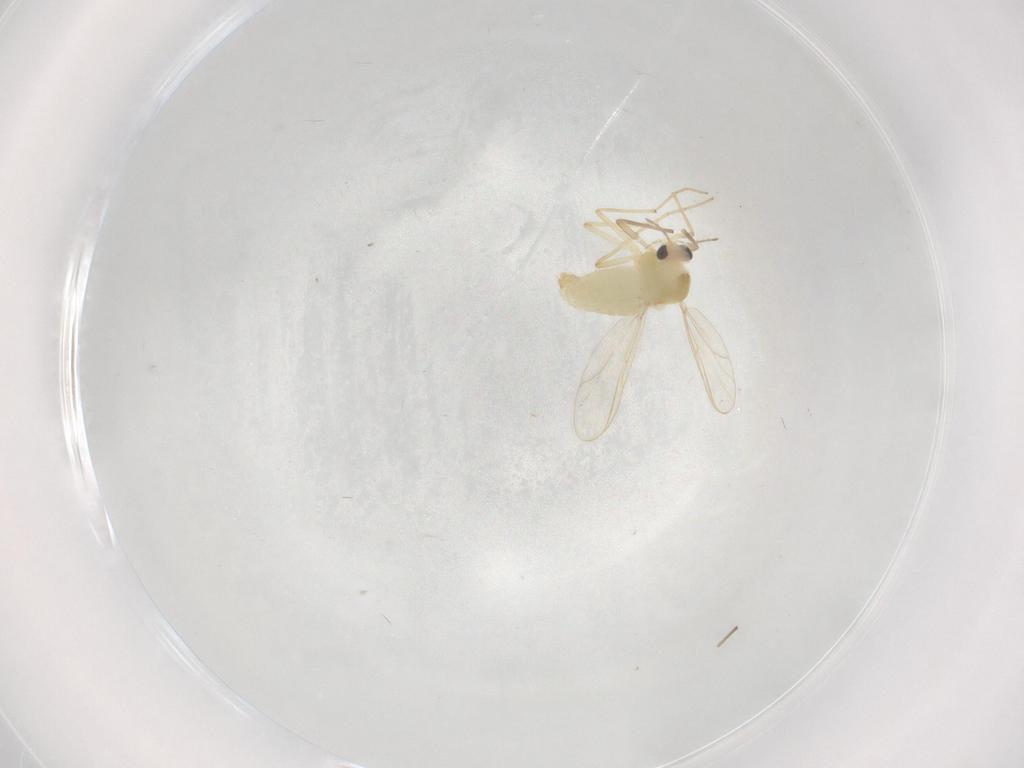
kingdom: Animalia
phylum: Arthropoda
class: Insecta
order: Diptera
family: Chironomidae
